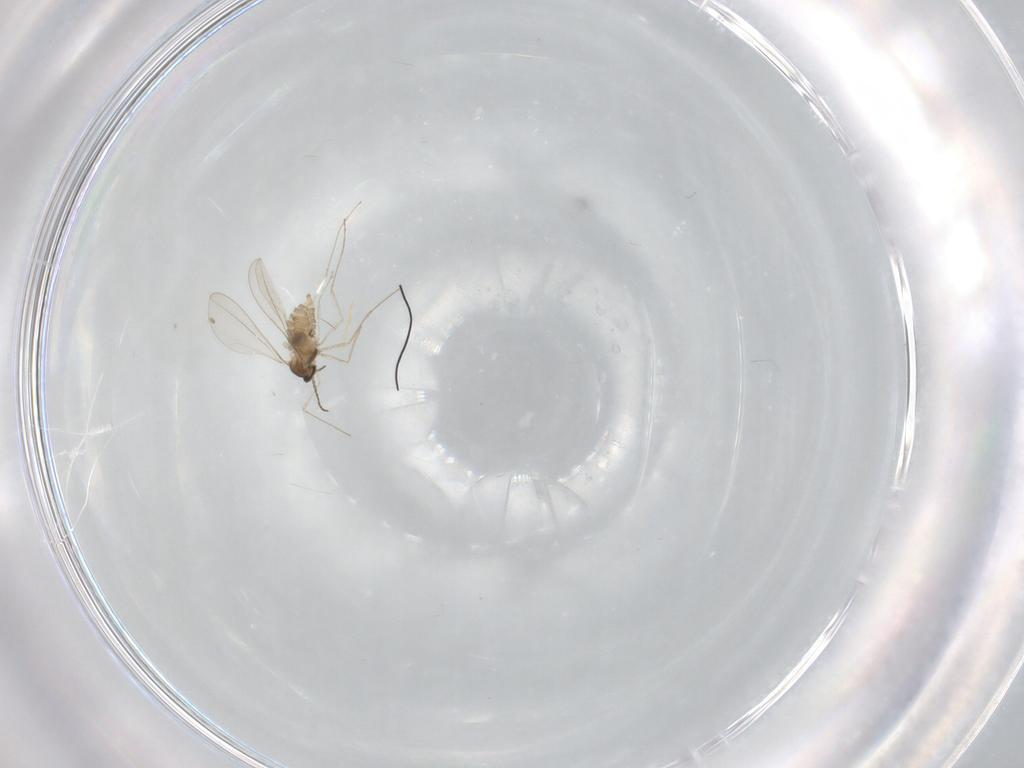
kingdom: Animalia
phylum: Arthropoda
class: Insecta
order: Diptera
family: Cecidomyiidae
